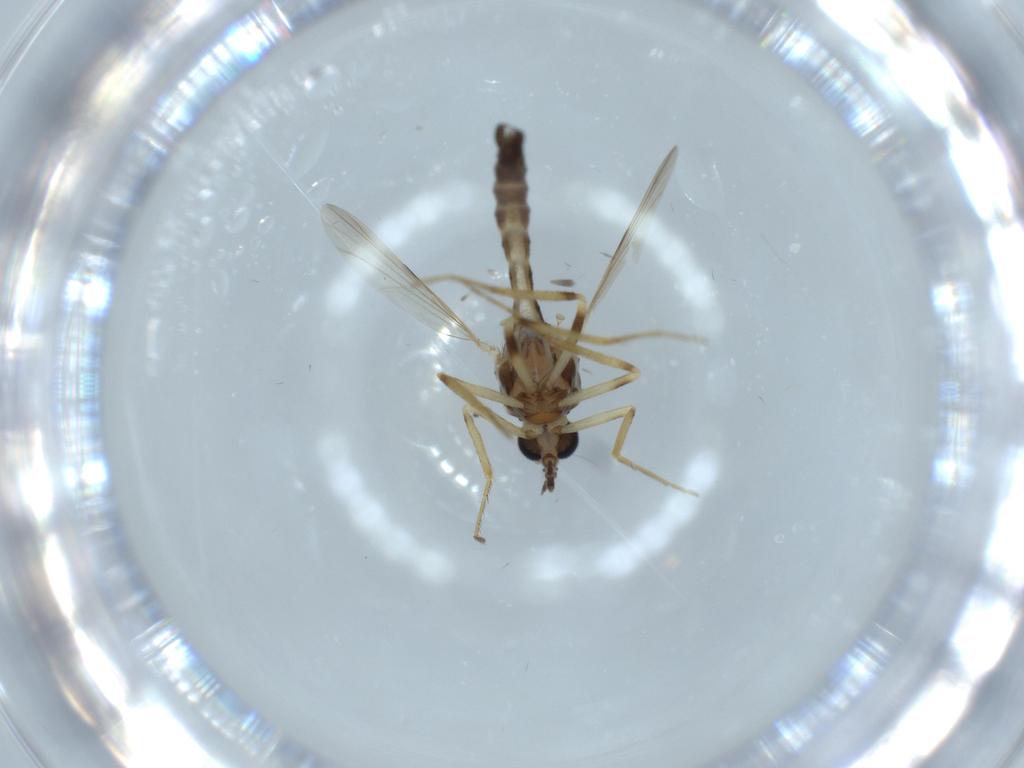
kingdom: Animalia
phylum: Arthropoda
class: Insecta
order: Diptera
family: Ceratopogonidae
